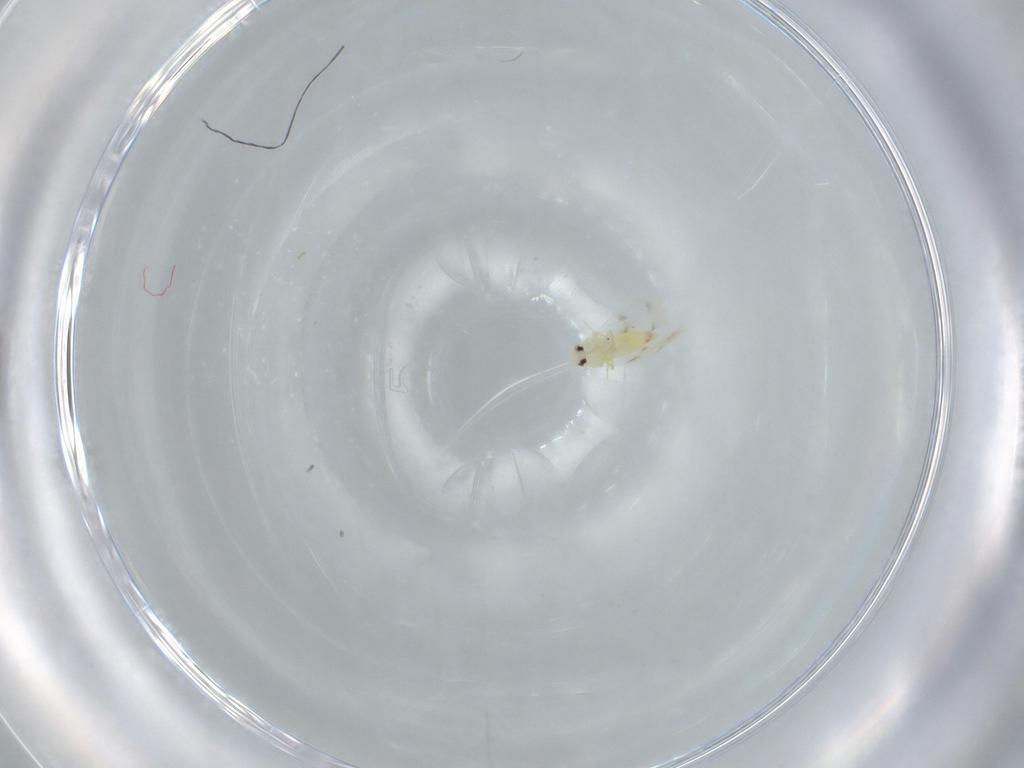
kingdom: Animalia
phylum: Arthropoda
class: Insecta
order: Hemiptera
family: Aleyrodidae
